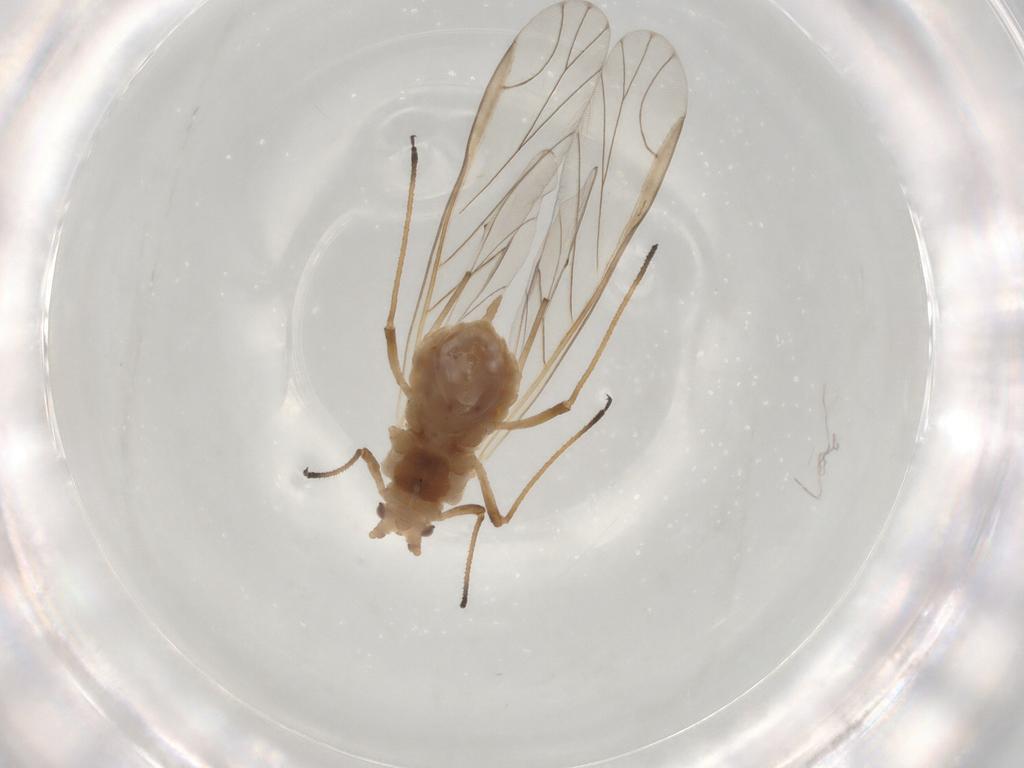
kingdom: Animalia
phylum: Arthropoda
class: Insecta
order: Hemiptera
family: Aphididae
